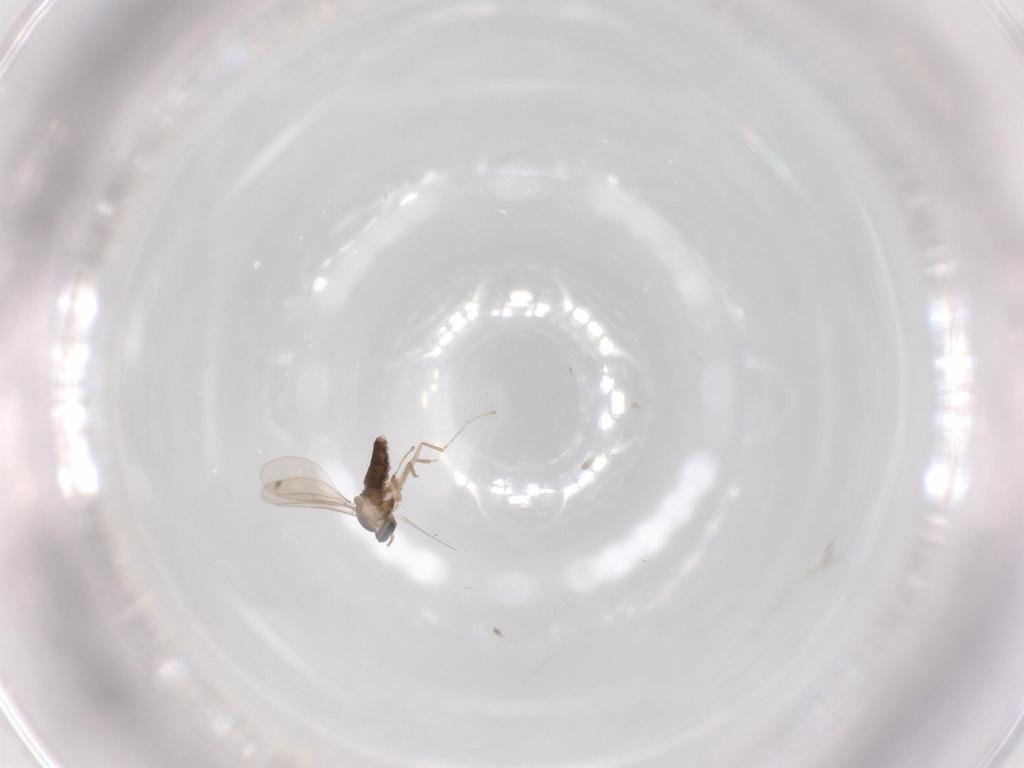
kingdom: Animalia
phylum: Arthropoda
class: Insecta
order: Diptera
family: Cecidomyiidae
